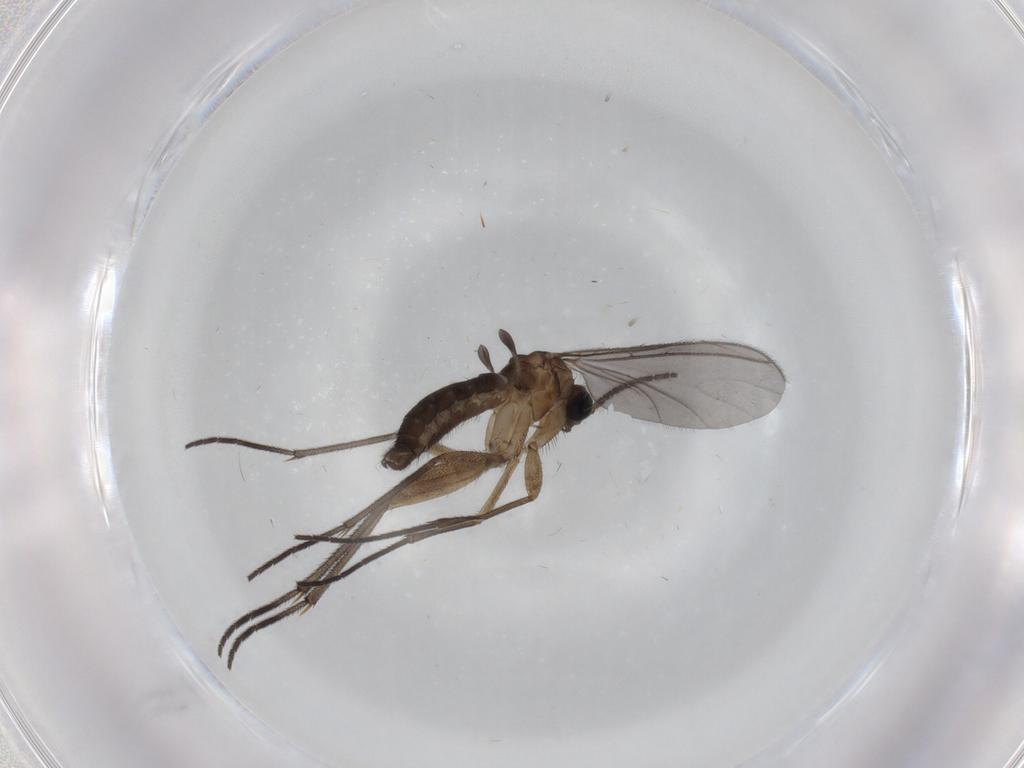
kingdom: Animalia
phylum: Arthropoda
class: Insecta
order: Diptera
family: Sciaridae
